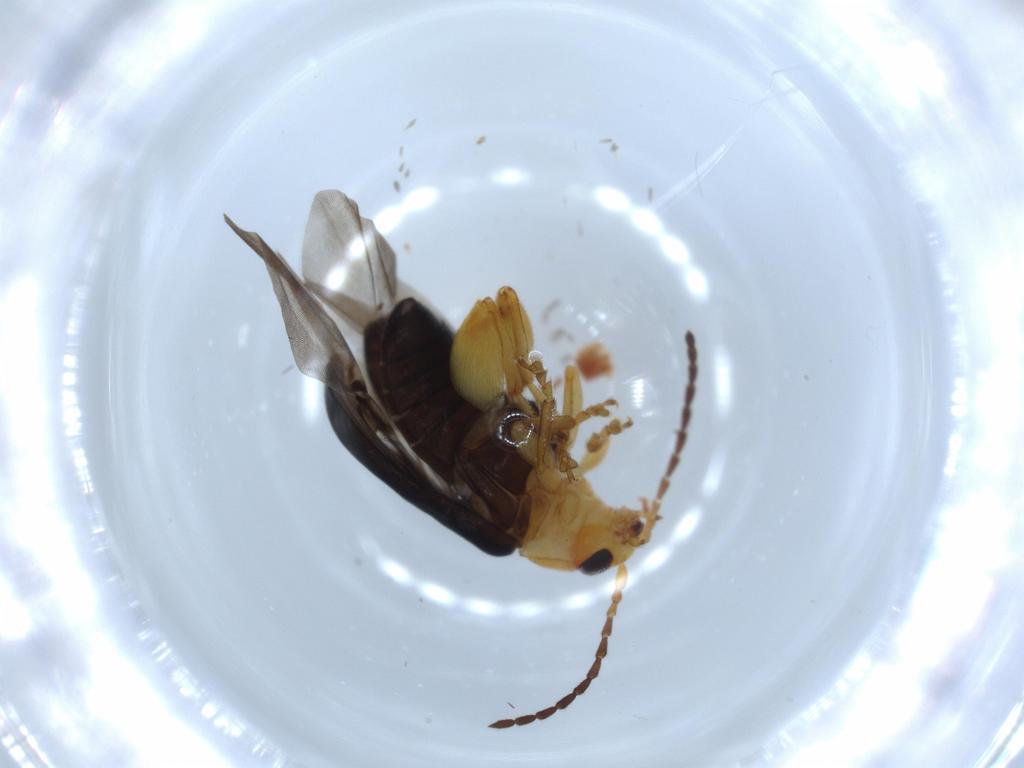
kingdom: Animalia
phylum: Arthropoda
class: Insecta
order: Coleoptera
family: Chrysomelidae
